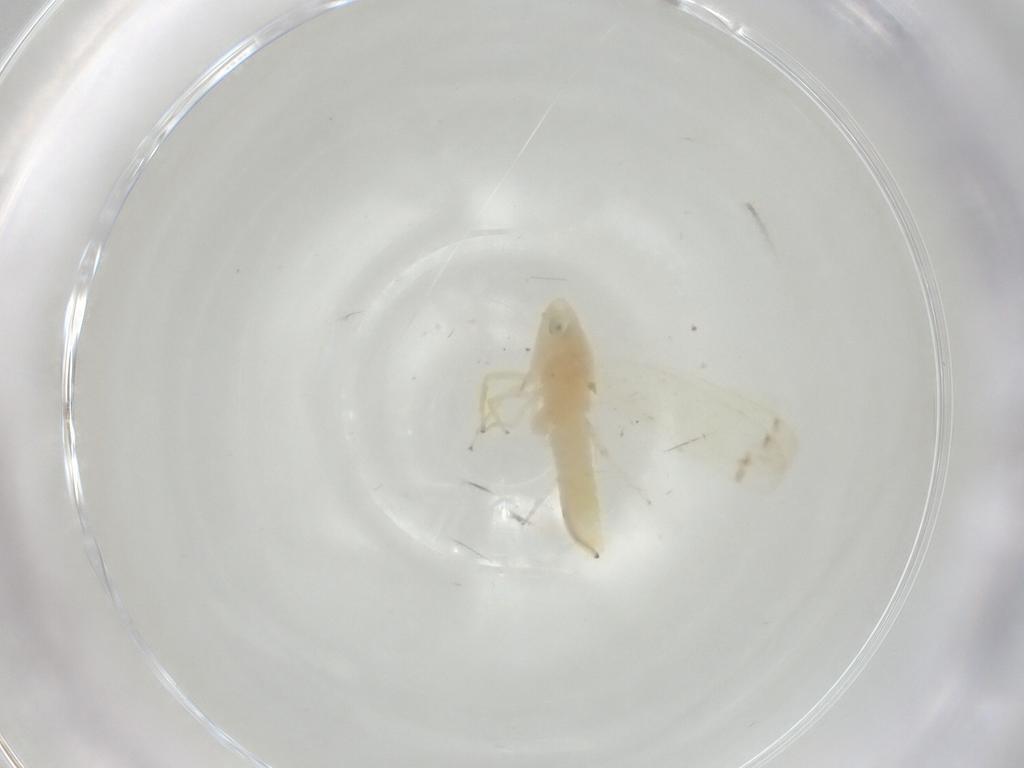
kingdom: Animalia
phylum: Arthropoda
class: Insecta
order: Hemiptera
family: Cicadellidae
